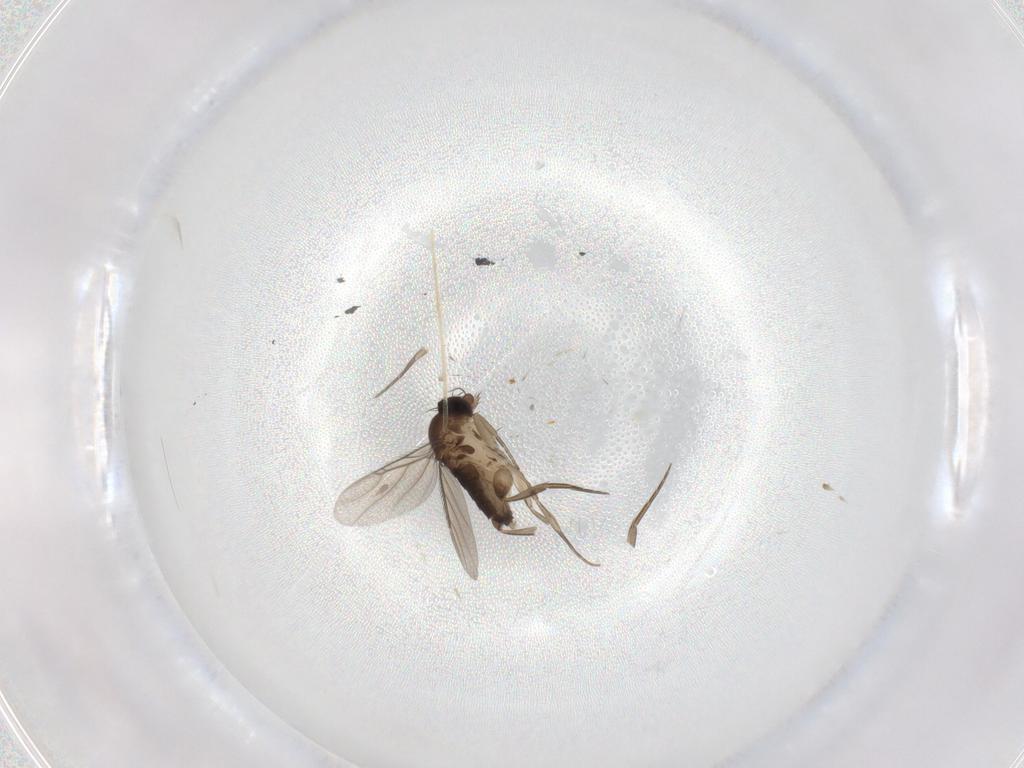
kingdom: Animalia
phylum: Arthropoda
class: Insecta
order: Diptera
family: Phoridae
